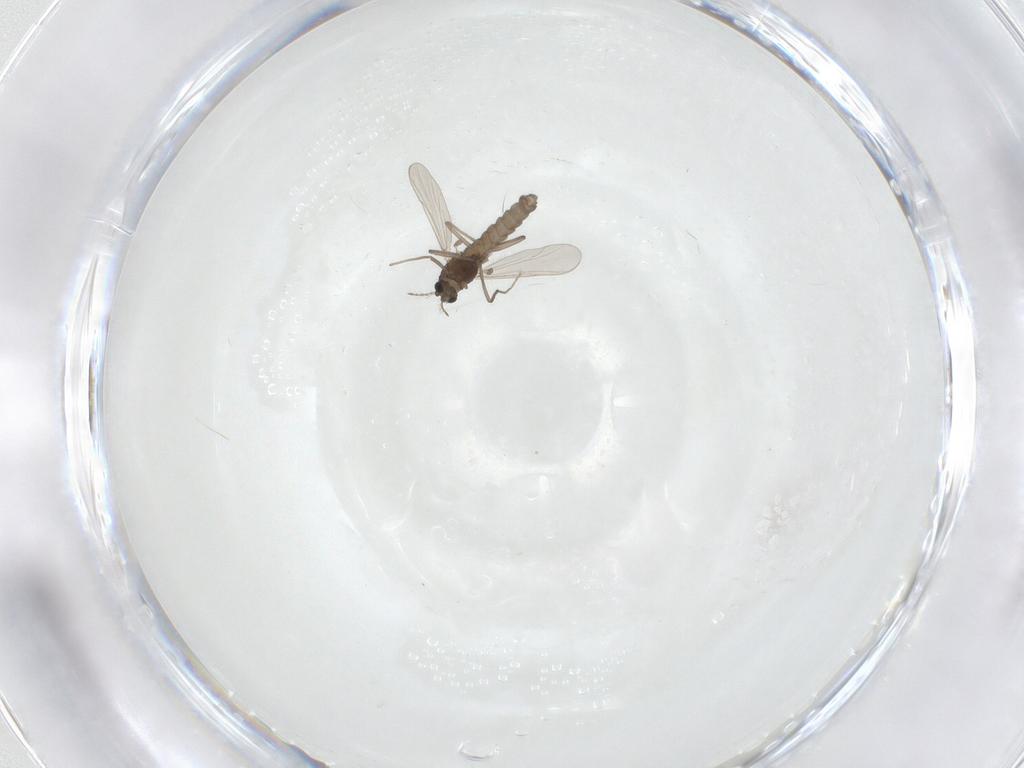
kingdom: Animalia
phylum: Arthropoda
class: Insecta
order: Diptera
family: Chironomidae
